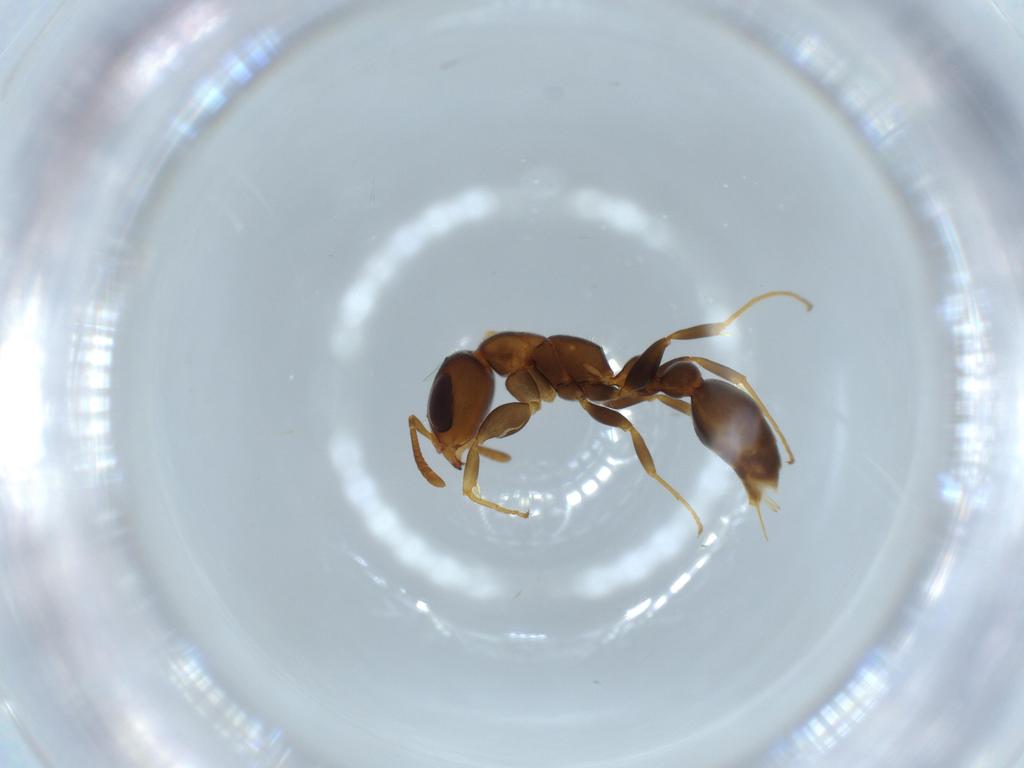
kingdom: Animalia
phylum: Arthropoda
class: Insecta
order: Hymenoptera
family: Formicidae
